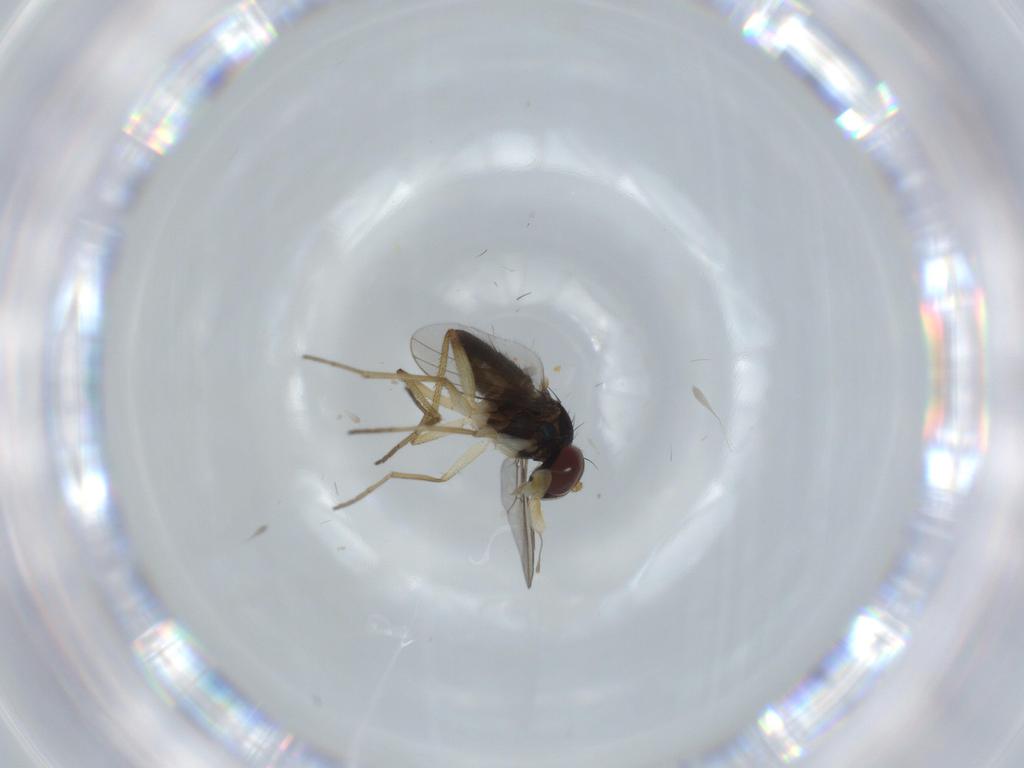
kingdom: Animalia
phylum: Arthropoda
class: Insecta
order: Diptera
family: Dolichopodidae
